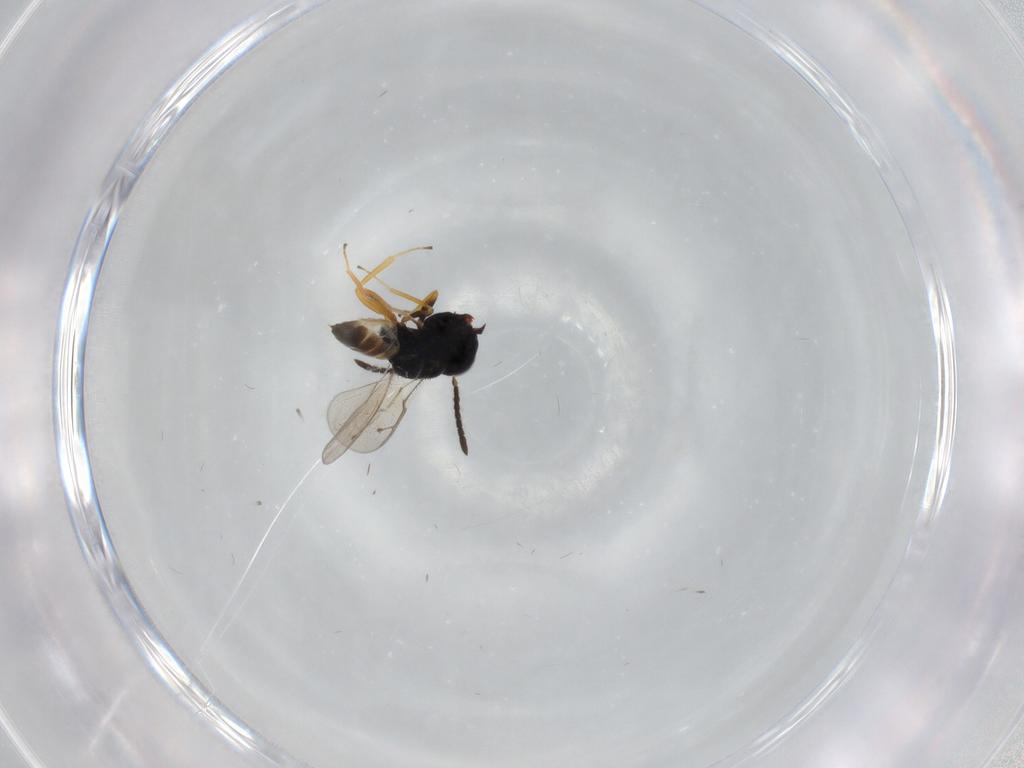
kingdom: Animalia
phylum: Arthropoda
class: Insecta
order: Hymenoptera
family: Pteromalidae
